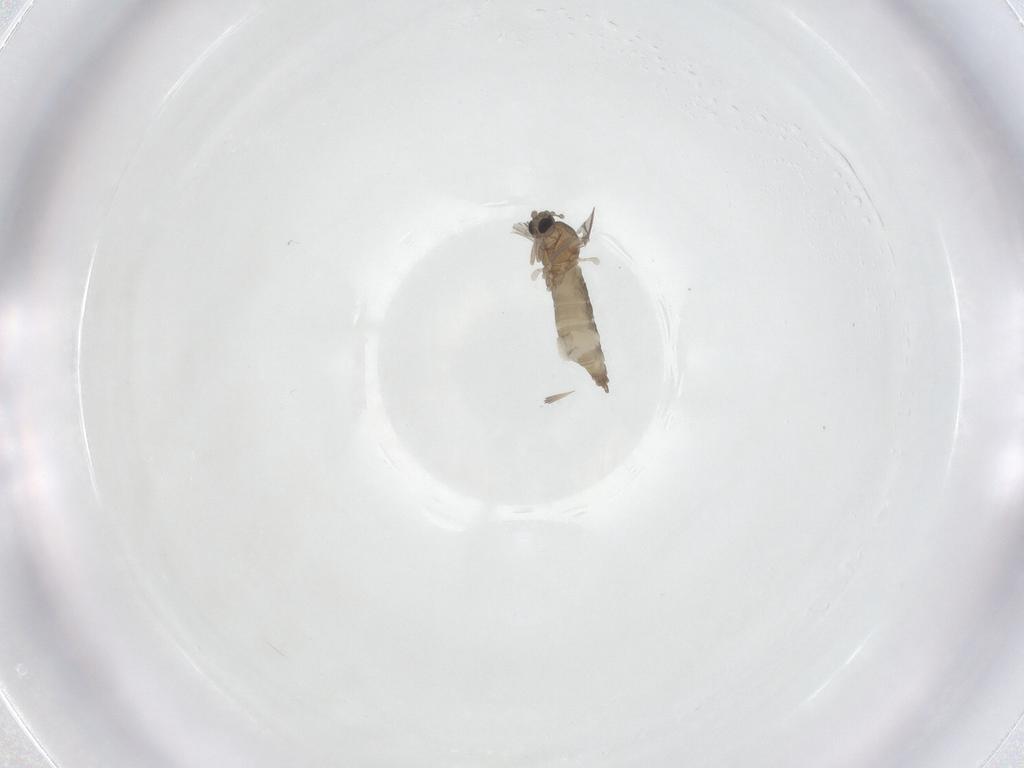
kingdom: Animalia
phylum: Arthropoda
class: Insecta
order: Diptera
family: Cecidomyiidae
